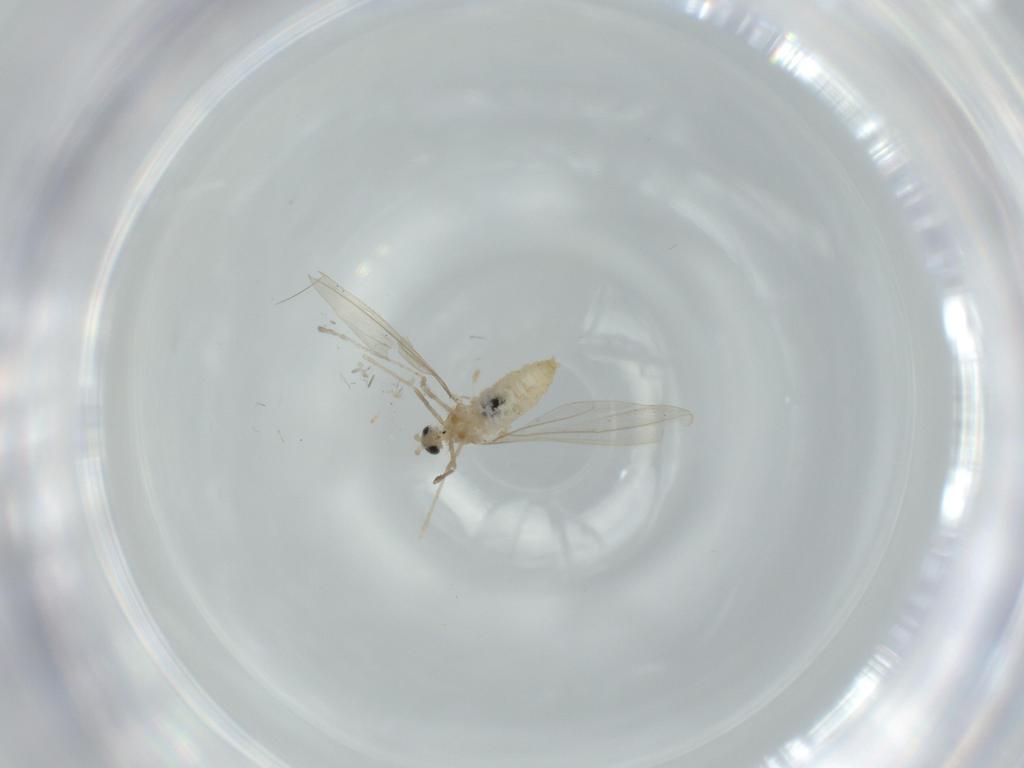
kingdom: Animalia
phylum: Arthropoda
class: Insecta
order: Diptera
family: Cecidomyiidae
